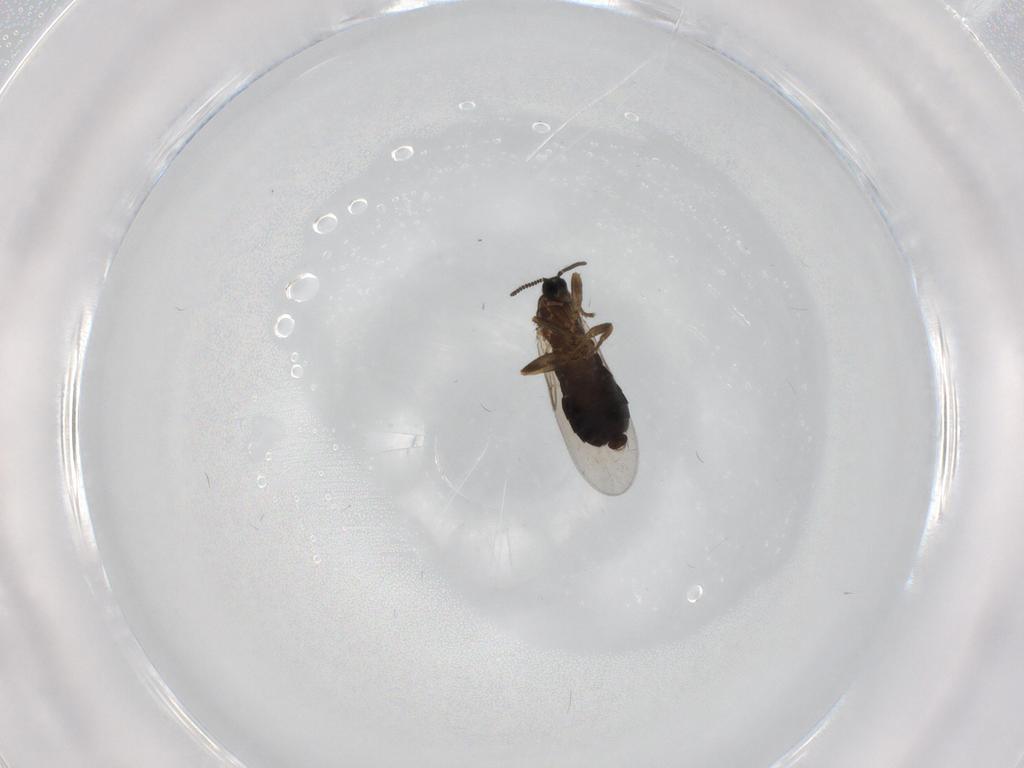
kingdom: Animalia
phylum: Arthropoda
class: Insecta
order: Diptera
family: Scatopsidae
